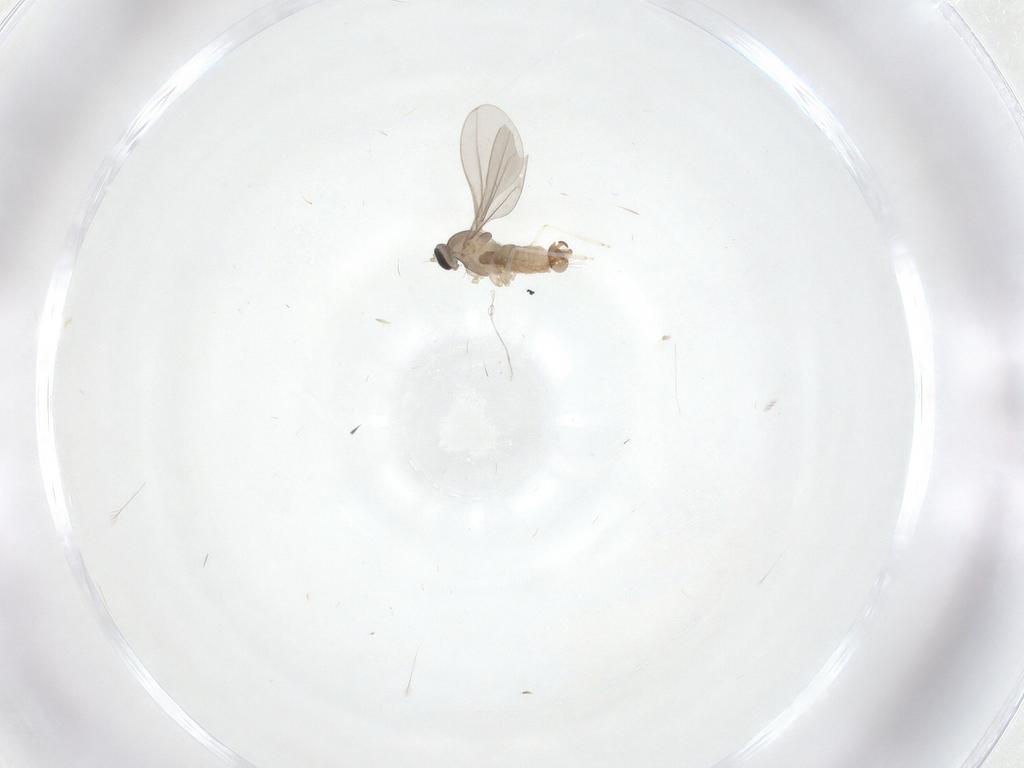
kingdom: Animalia
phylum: Arthropoda
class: Insecta
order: Diptera
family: Cecidomyiidae
